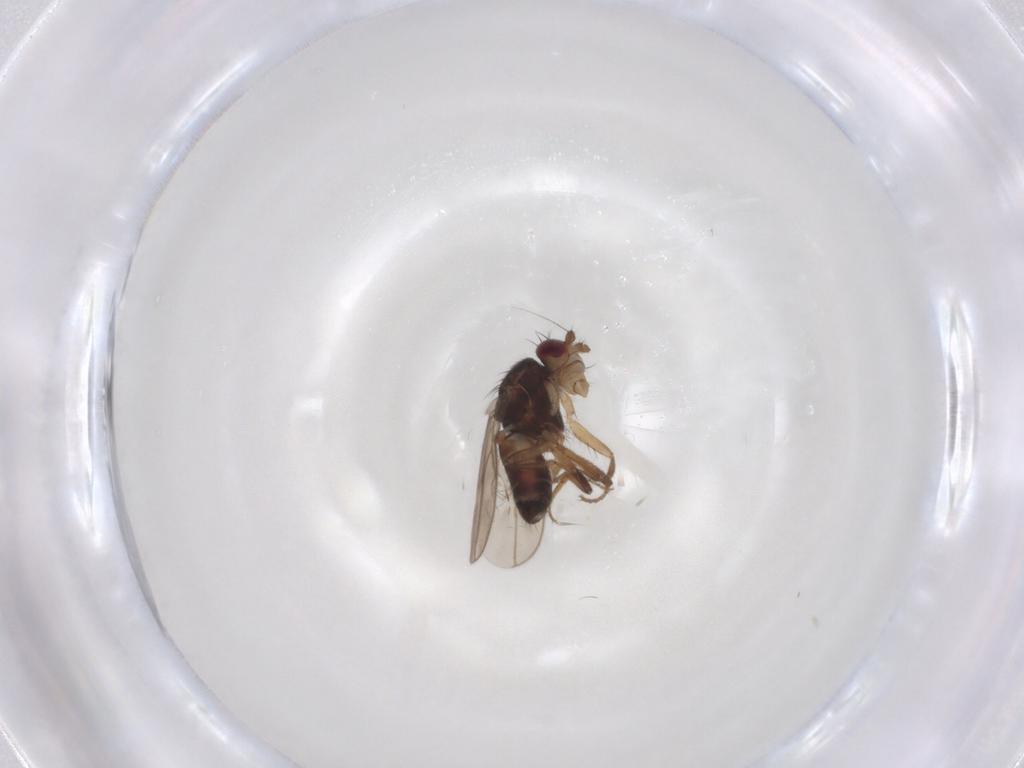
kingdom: Animalia
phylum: Arthropoda
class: Insecta
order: Diptera
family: Sphaeroceridae
